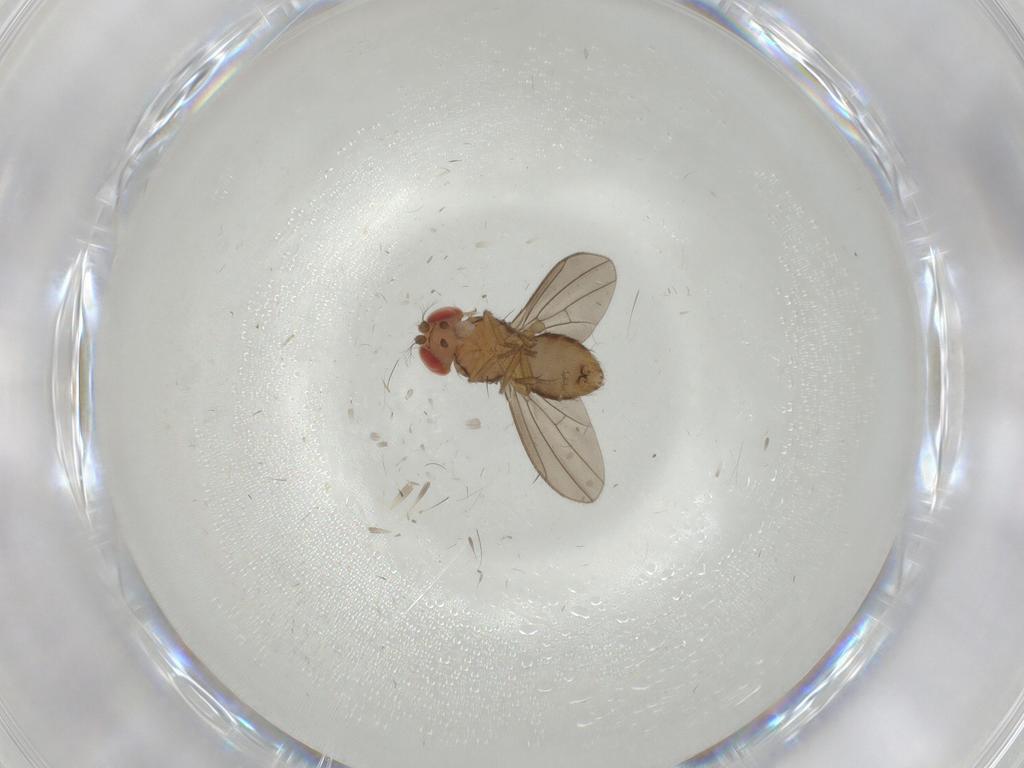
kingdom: Animalia
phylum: Arthropoda
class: Insecta
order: Diptera
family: Drosophilidae
